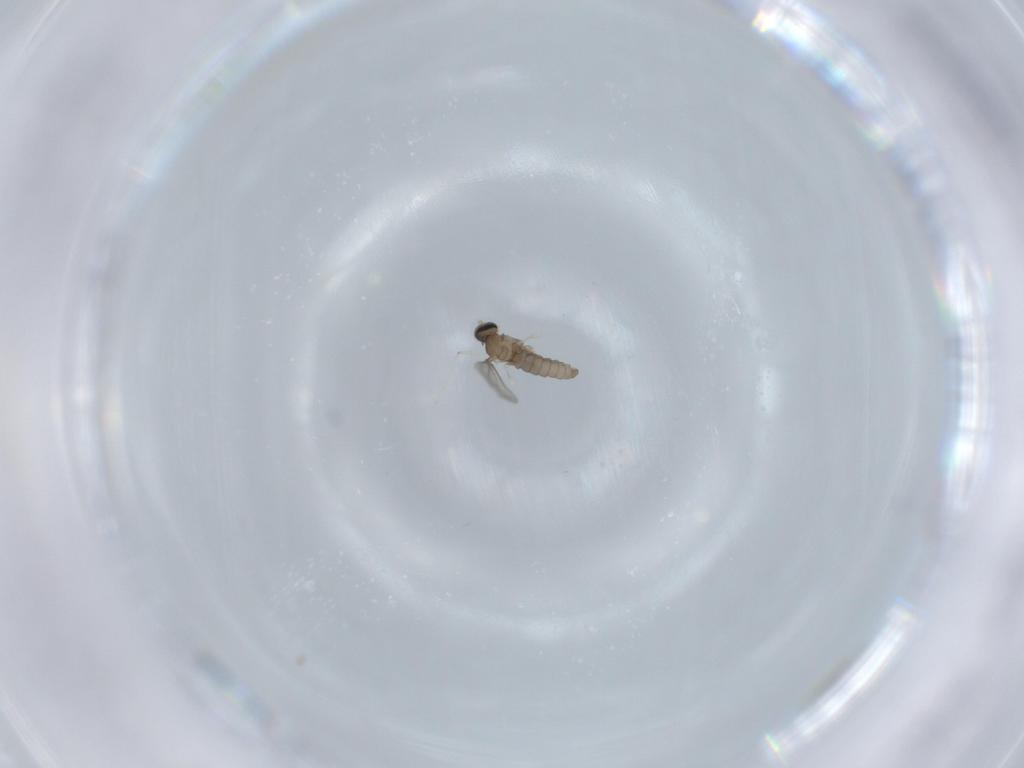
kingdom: Animalia
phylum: Arthropoda
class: Insecta
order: Diptera
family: Cecidomyiidae
